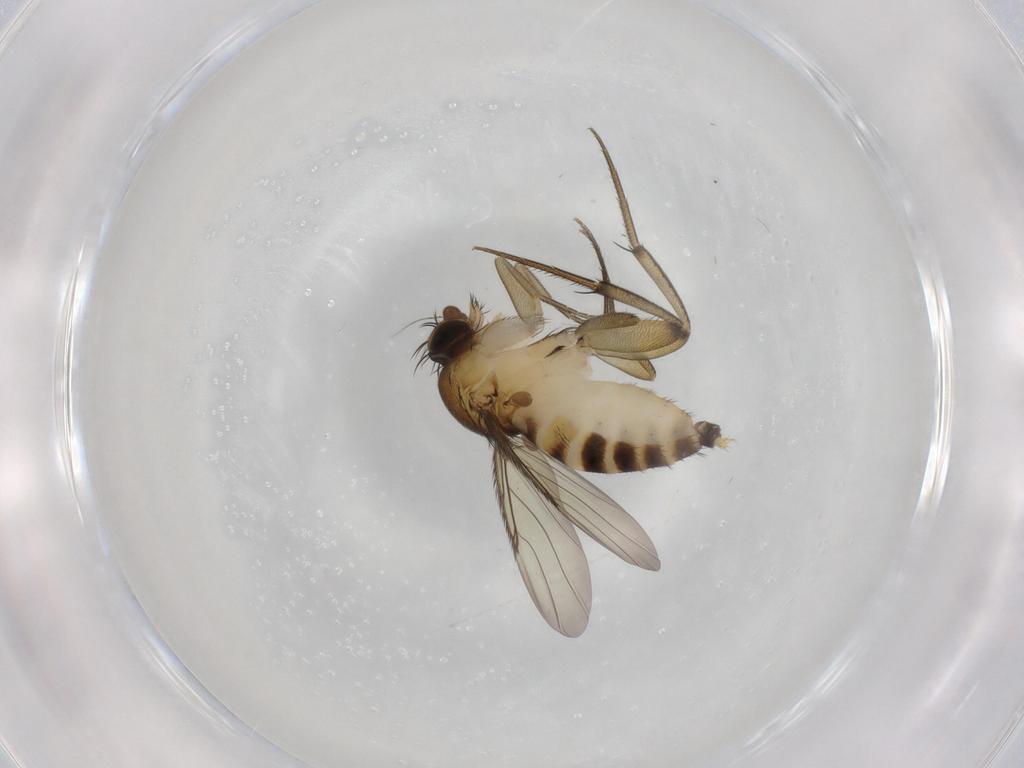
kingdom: Animalia
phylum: Arthropoda
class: Insecta
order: Diptera
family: Phoridae
